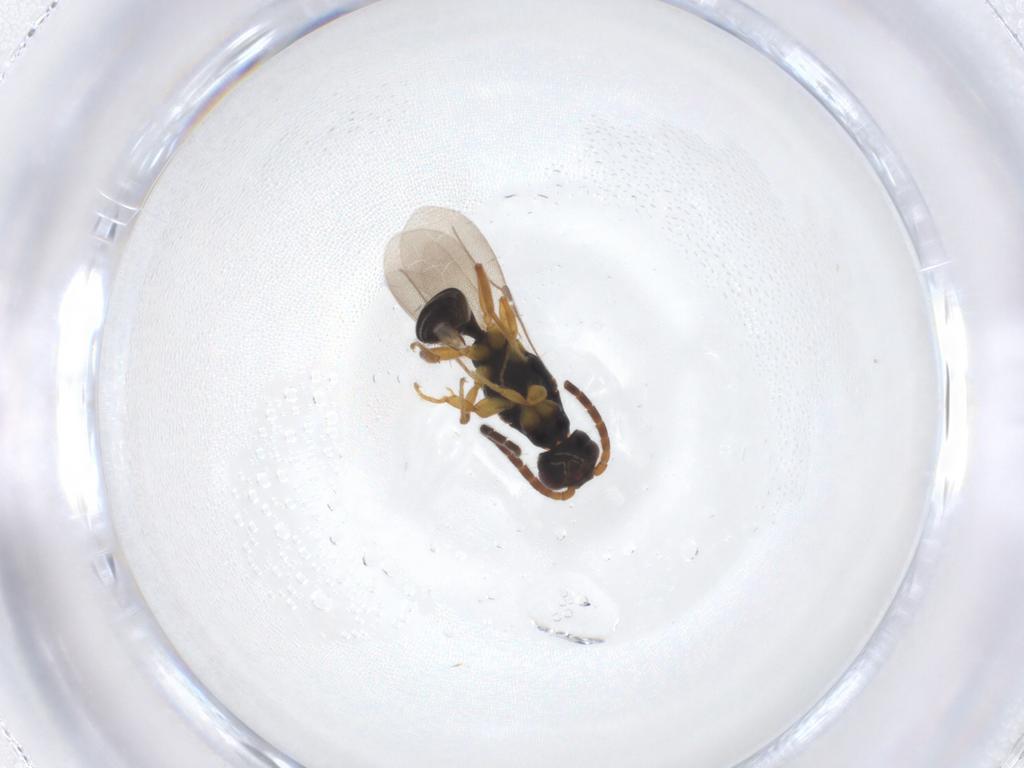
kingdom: Animalia
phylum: Arthropoda
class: Insecta
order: Hymenoptera
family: Bethylidae
